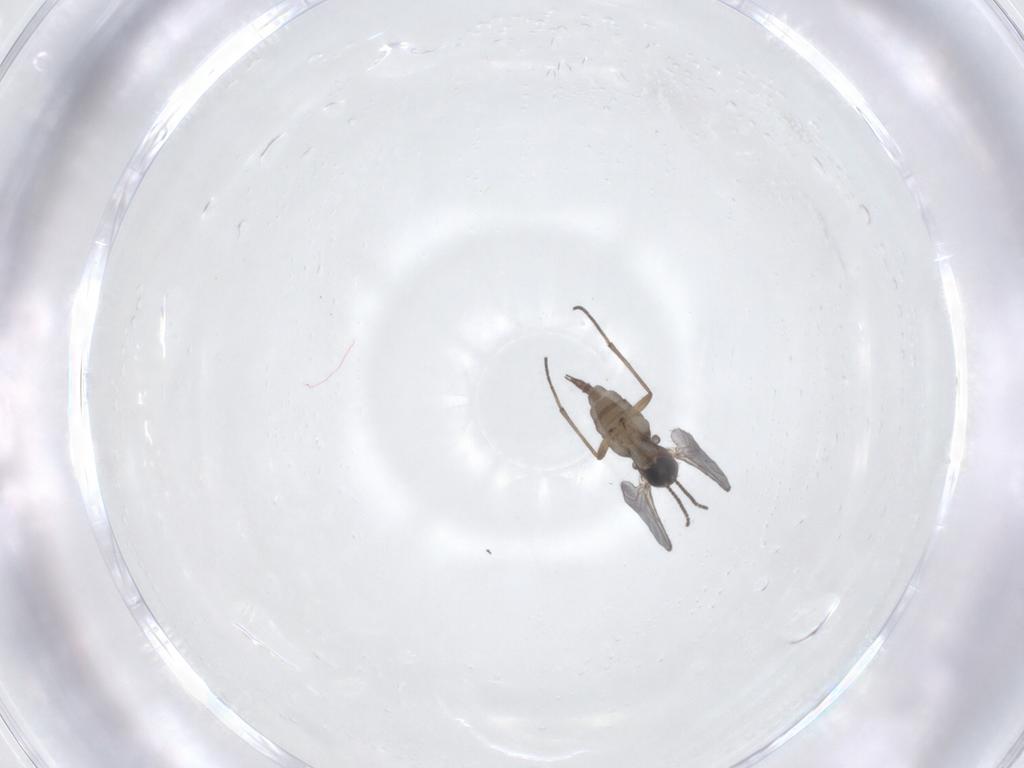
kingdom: Animalia
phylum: Arthropoda
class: Insecta
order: Diptera
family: Sciaridae
